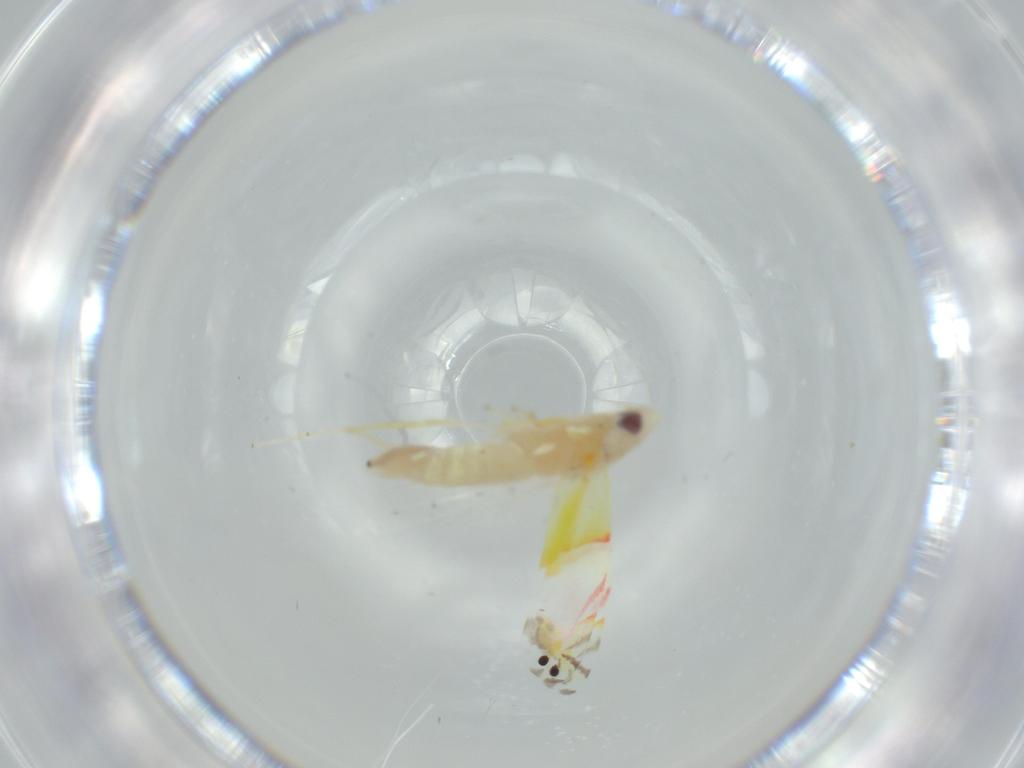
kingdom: Animalia
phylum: Arthropoda
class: Insecta
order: Hemiptera
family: Cicadellidae
